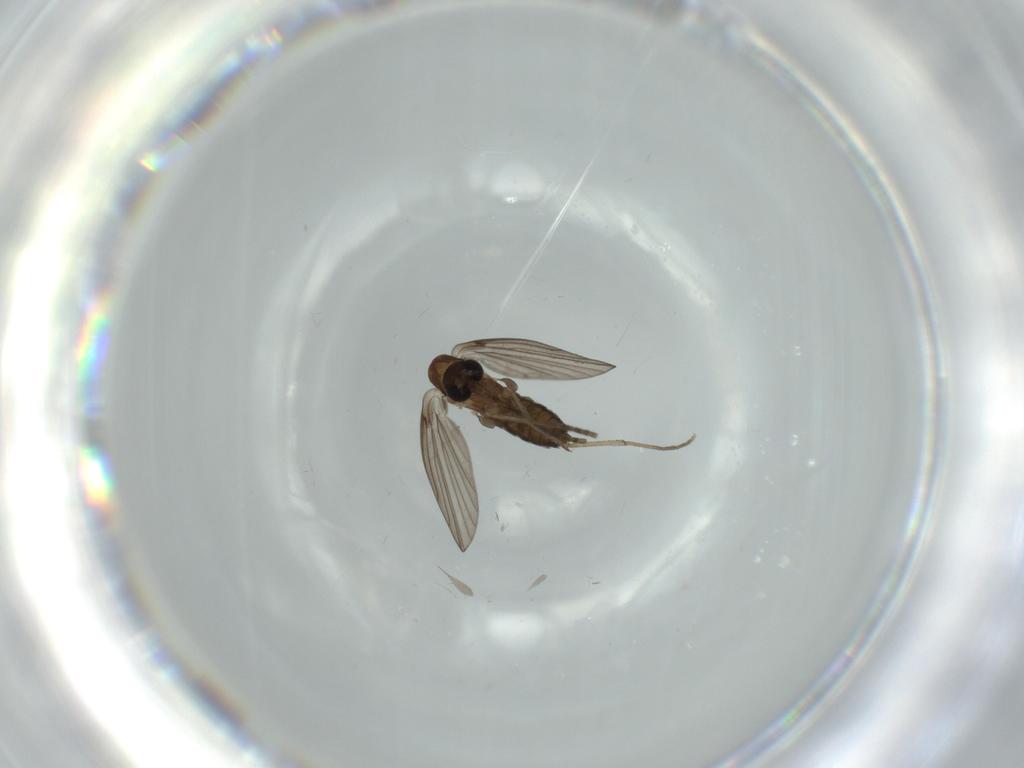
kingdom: Animalia
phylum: Arthropoda
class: Insecta
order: Diptera
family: Psychodidae
